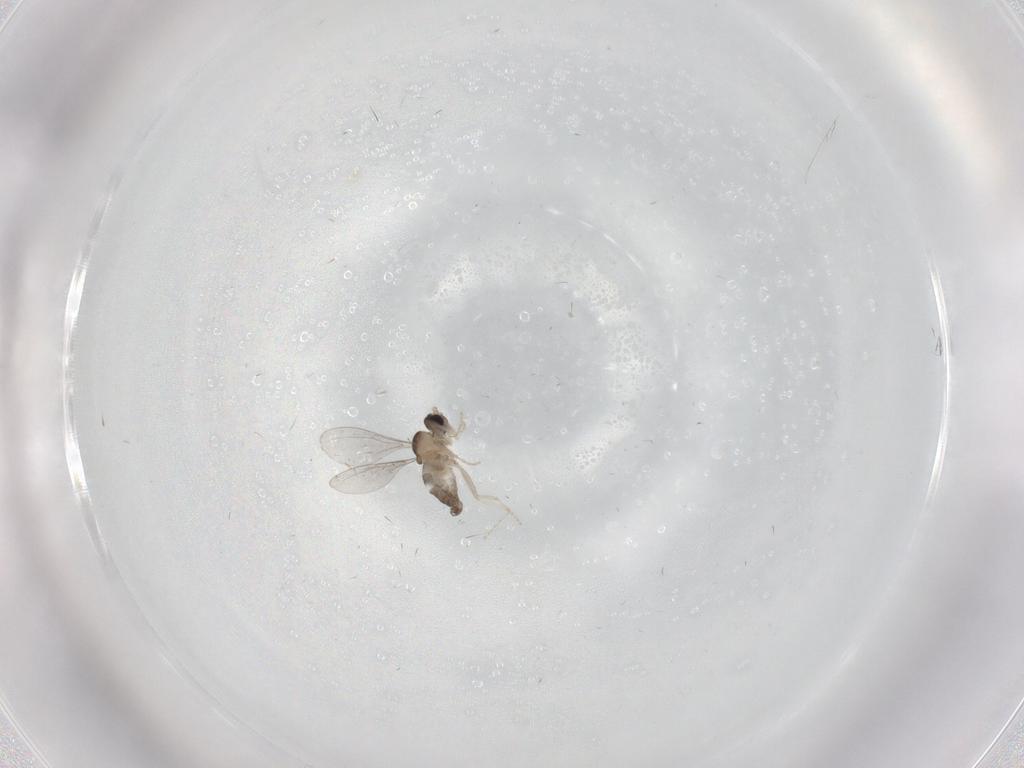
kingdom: Animalia
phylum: Arthropoda
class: Insecta
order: Diptera
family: Cecidomyiidae
